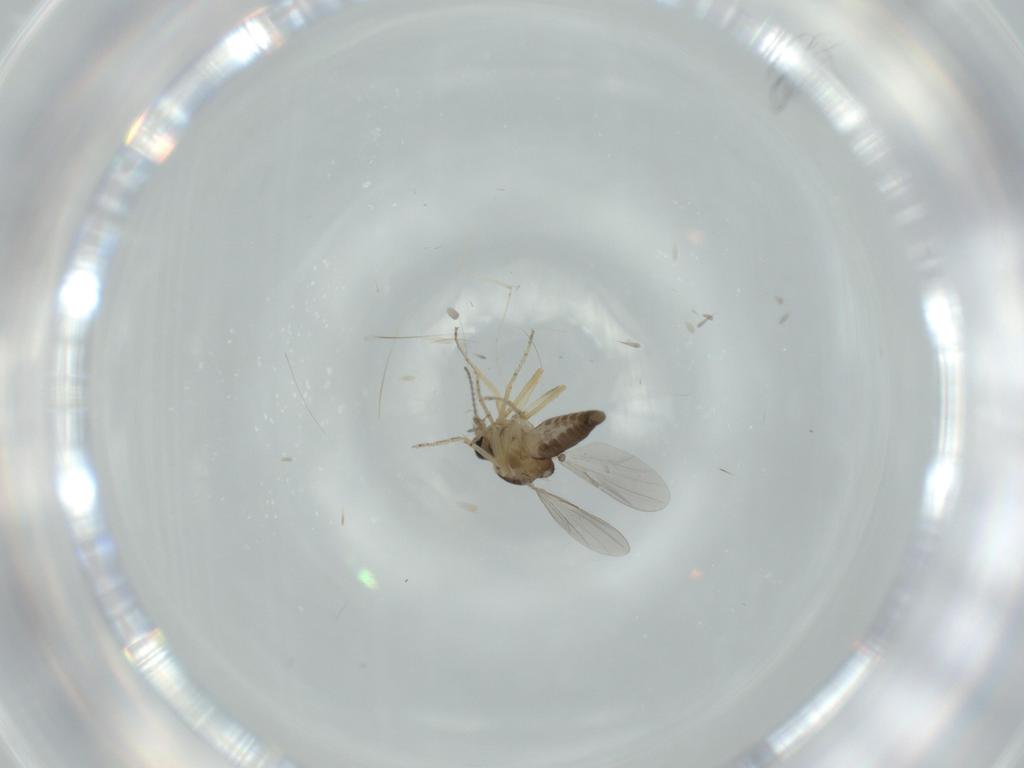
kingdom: Animalia
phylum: Arthropoda
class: Insecta
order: Diptera
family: Ceratopogonidae
